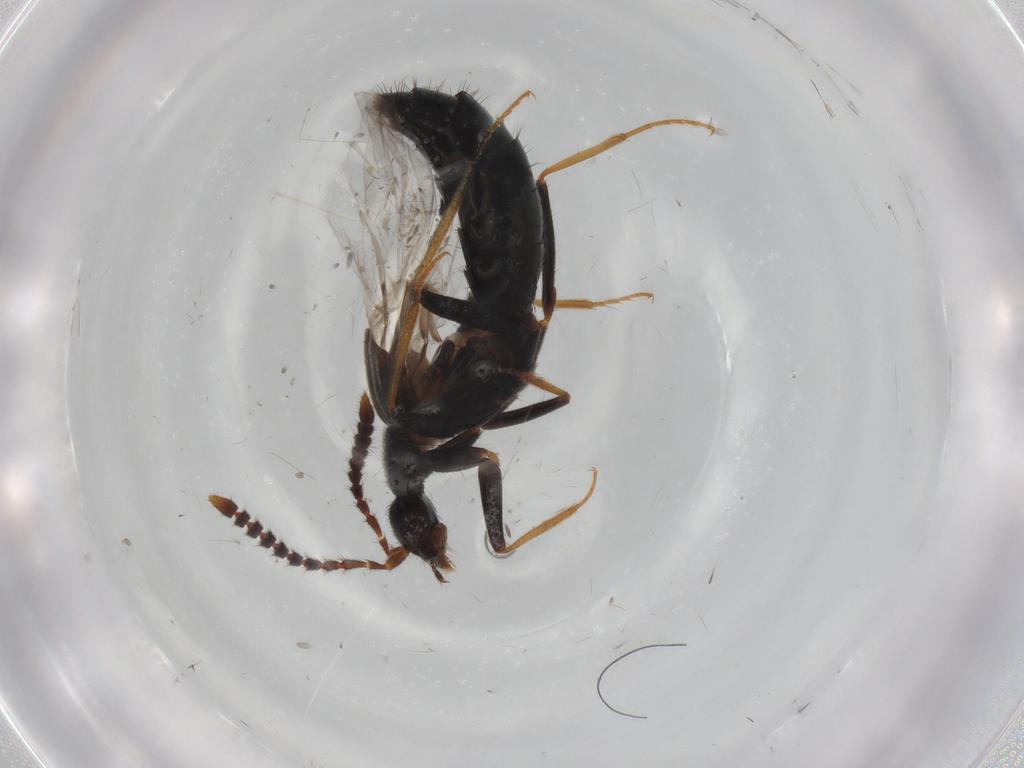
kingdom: Animalia
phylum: Arthropoda
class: Insecta
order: Coleoptera
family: Staphylinidae
